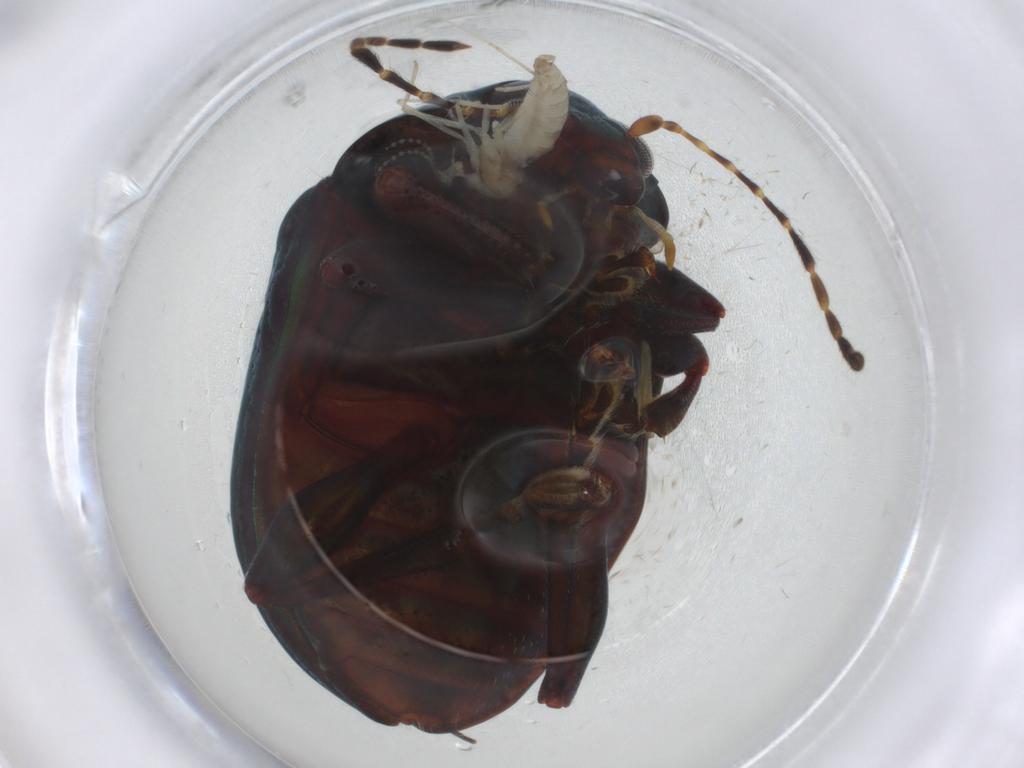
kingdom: Animalia
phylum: Arthropoda
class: Insecta
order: Coleoptera
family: Chrysomelidae
